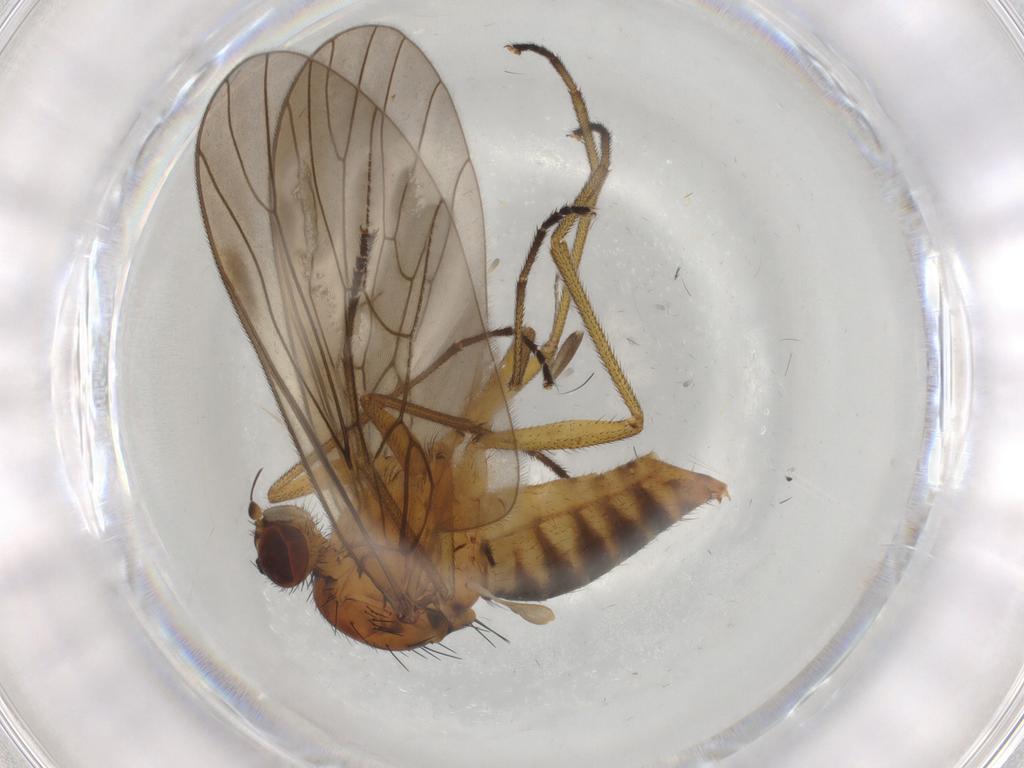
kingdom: Animalia
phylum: Arthropoda
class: Insecta
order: Diptera
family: Brachystomatidae
